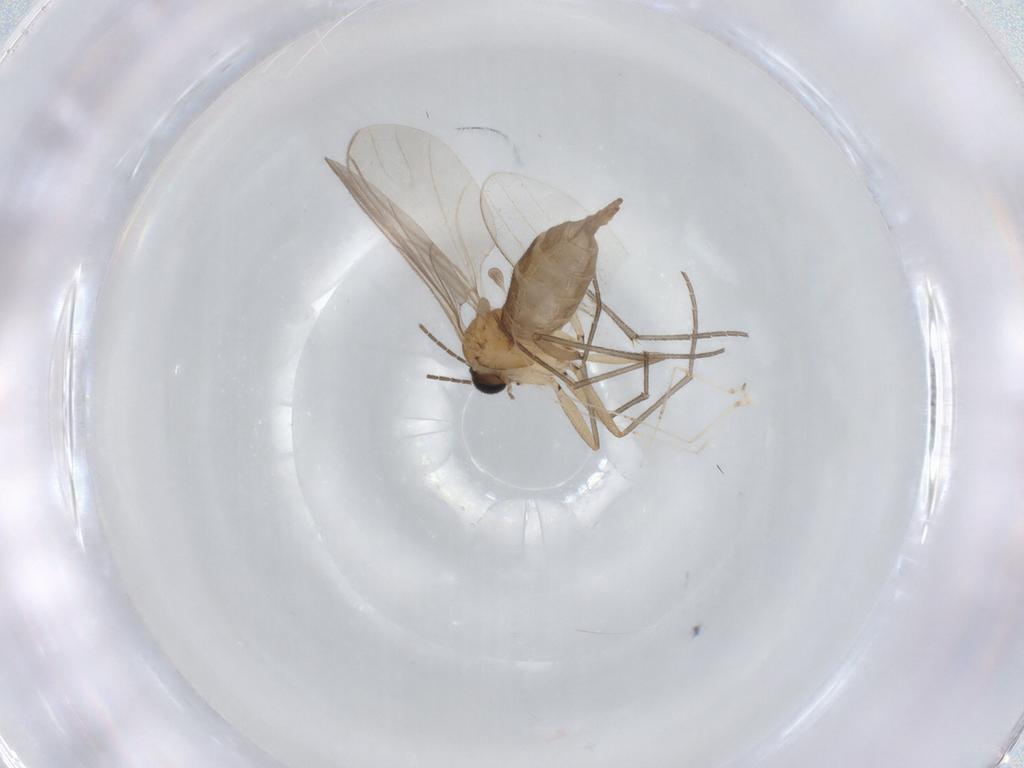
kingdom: Animalia
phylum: Arthropoda
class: Insecta
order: Diptera
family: Sciaridae
